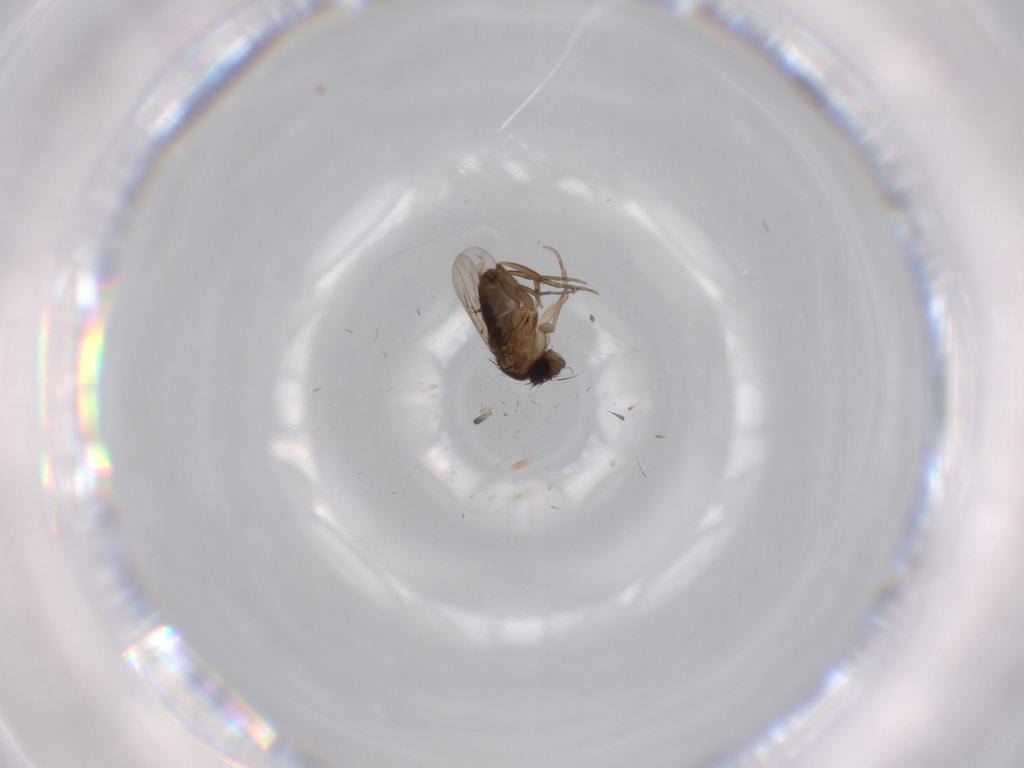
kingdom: Animalia
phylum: Arthropoda
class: Insecta
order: Diptera
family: Phoridae
